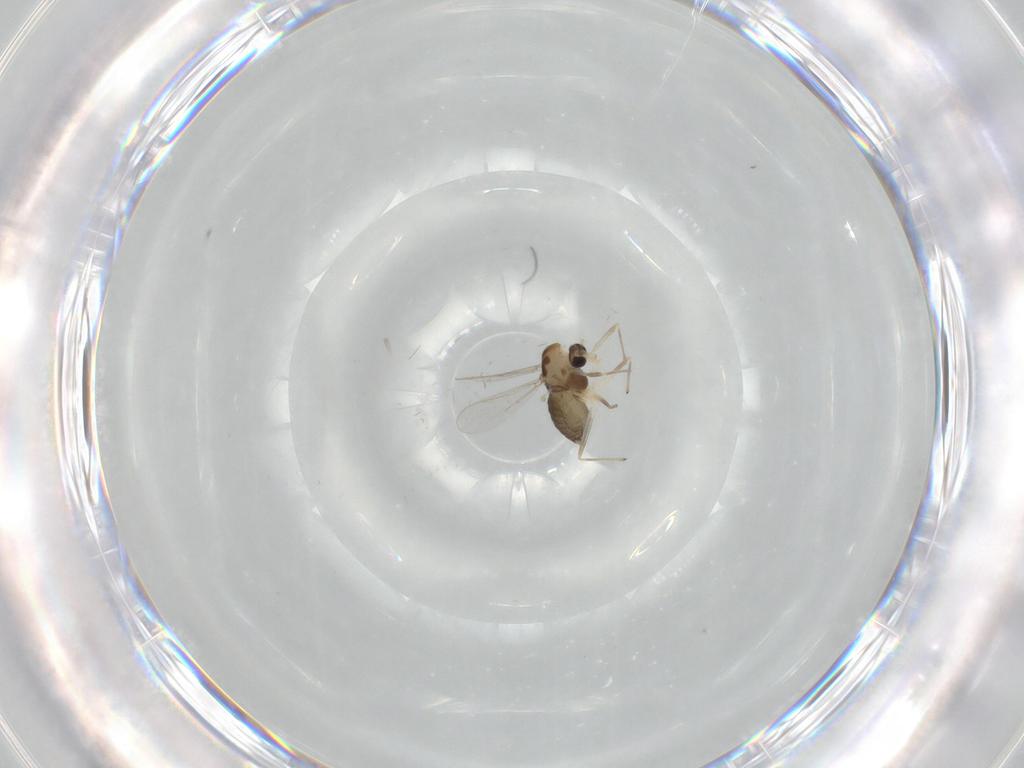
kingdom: Animalia
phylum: Arthropoda
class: Insecta
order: Diptera
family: Chironomidae
